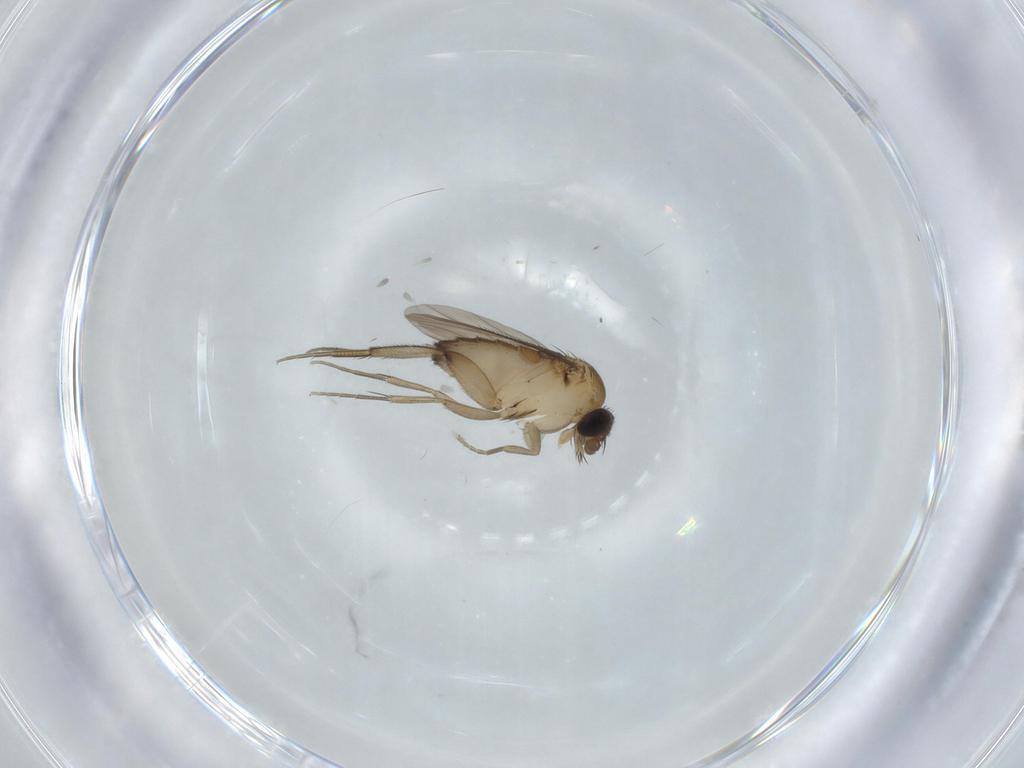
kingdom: Animalia
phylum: Arthropoda
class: Insecta
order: Diptera
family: Phoridae
